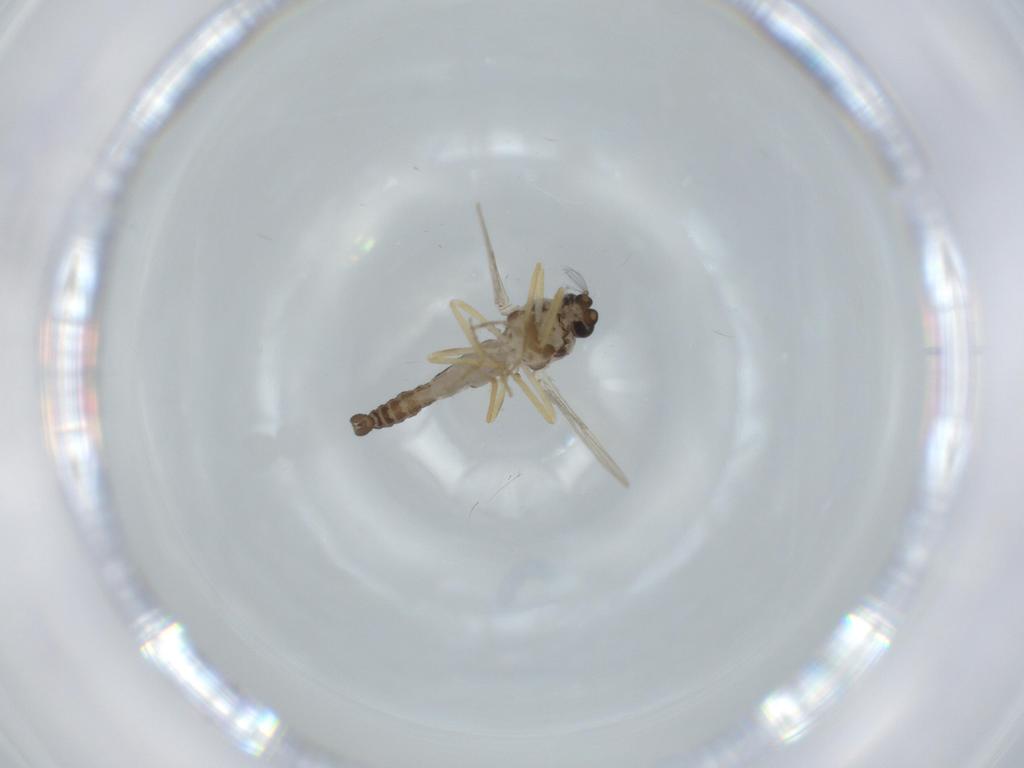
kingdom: Animalia
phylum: Arthropoda
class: Insecta
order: Diptera
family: Ceratopogonidae
